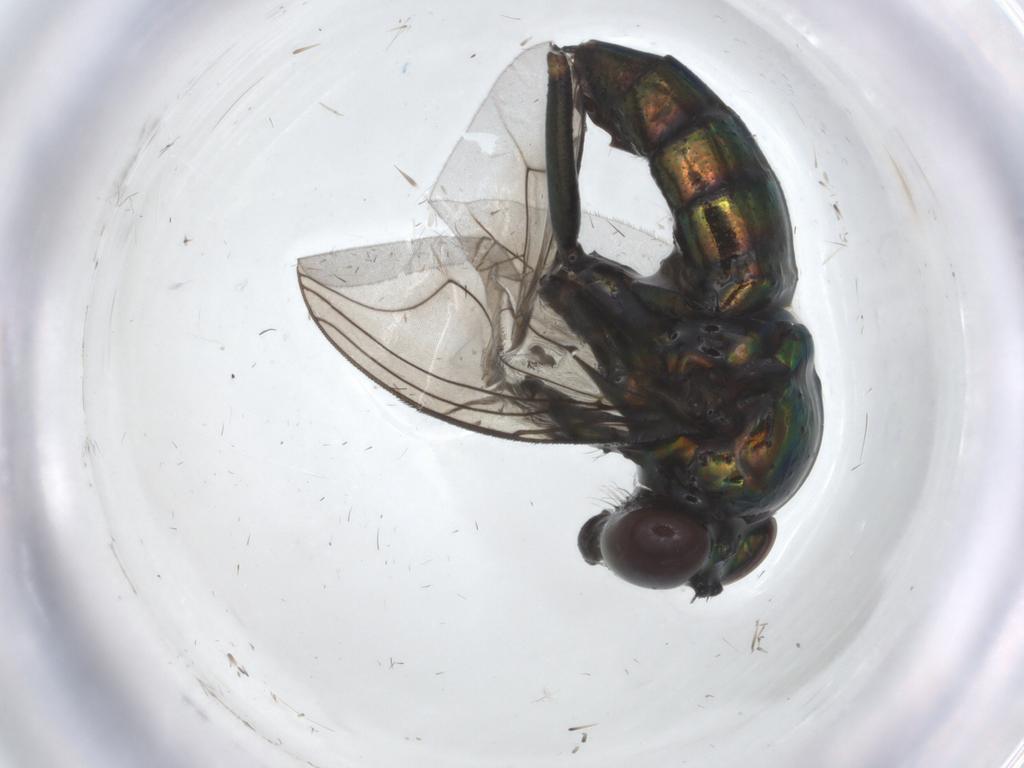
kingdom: Animalia
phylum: Arthropoda
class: Insecta
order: Diptera
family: Dolichopodidae
